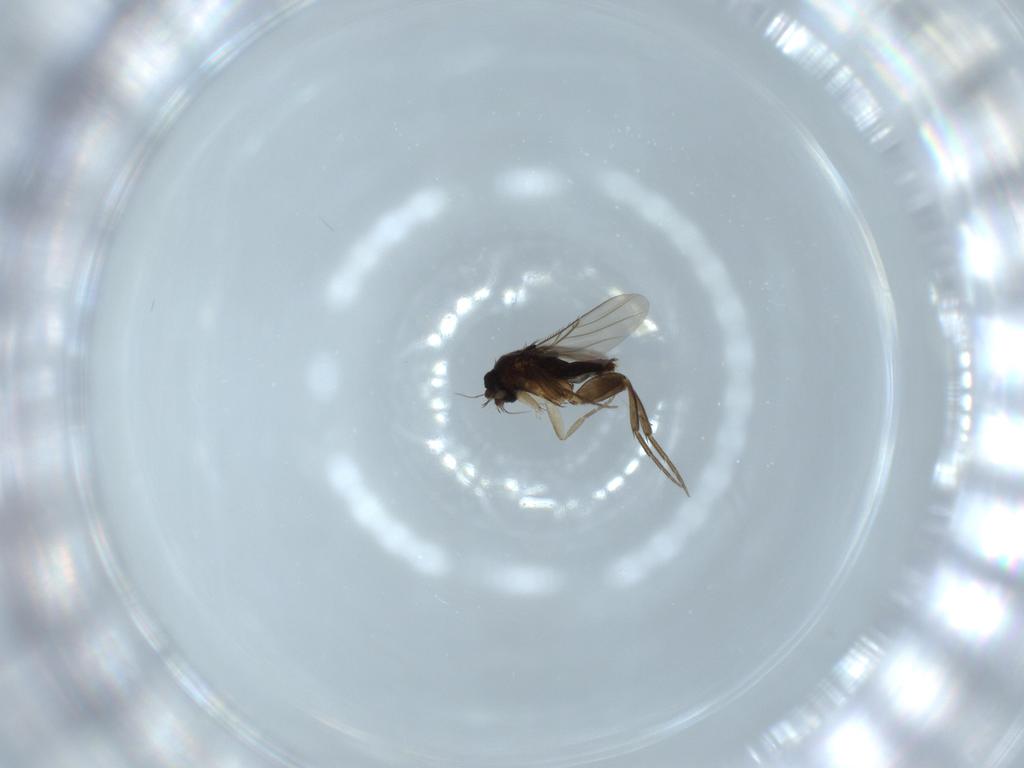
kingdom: Animalia
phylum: Arthropoda
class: Insecta
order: Diptera
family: Phoridae
